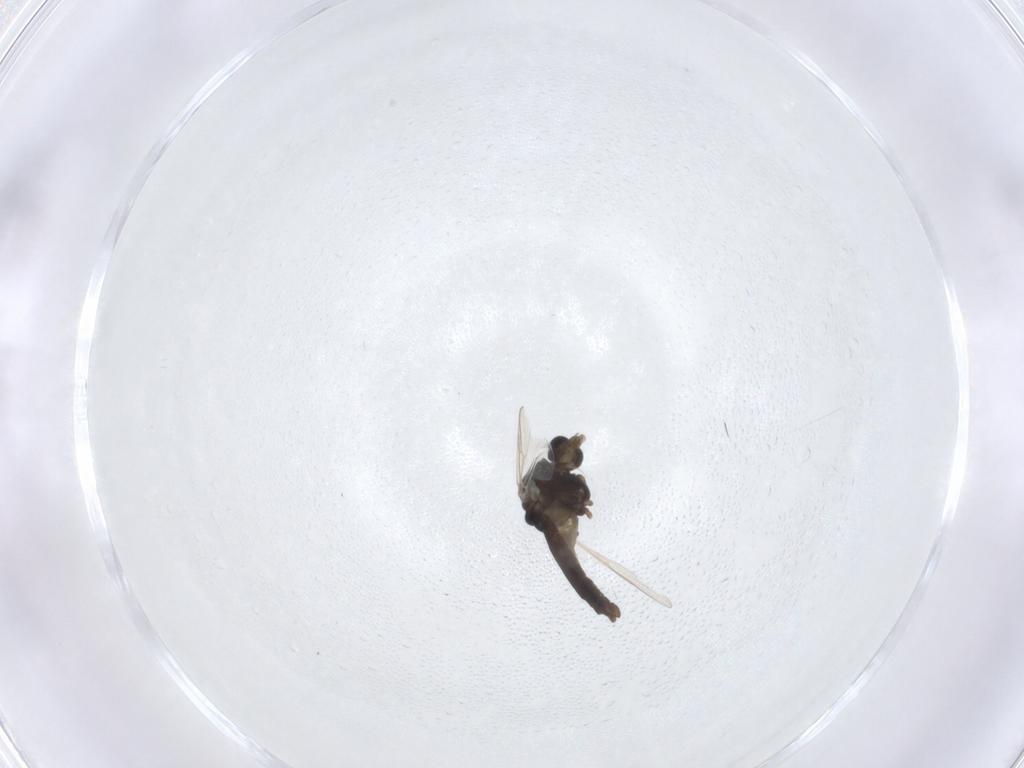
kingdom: Animalia
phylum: Arthropoda
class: Insecta
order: Diptera
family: Chironomidae
